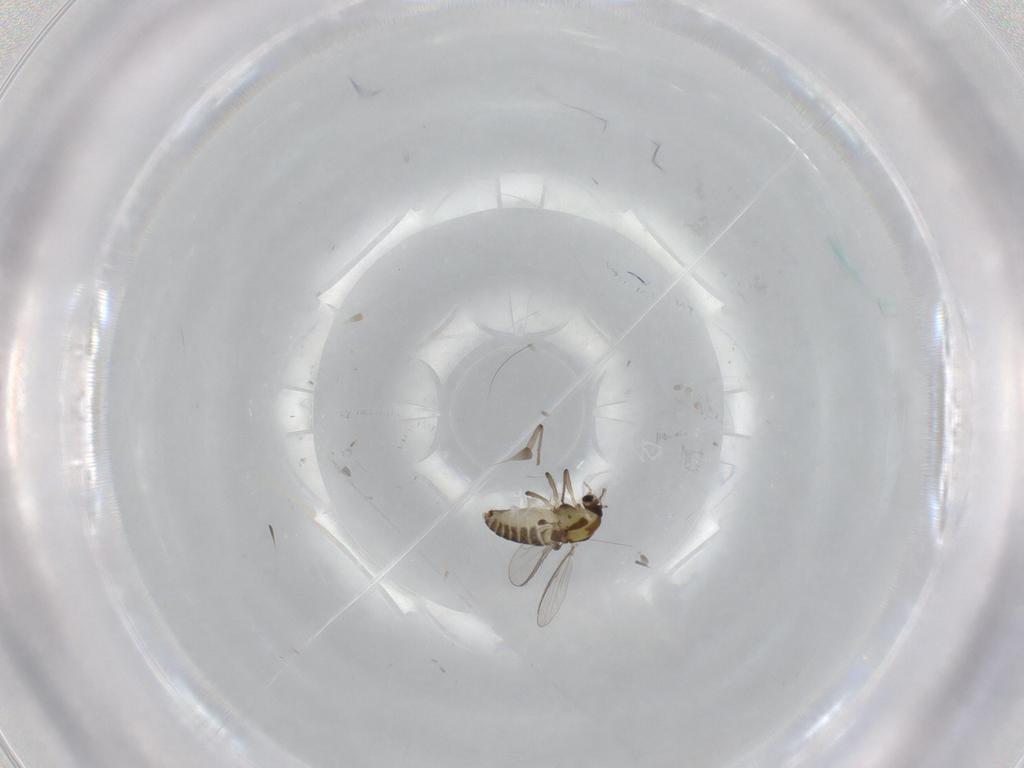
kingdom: Animalia
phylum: Arthropoda
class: Insecta
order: Diptera
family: Chironomidae
